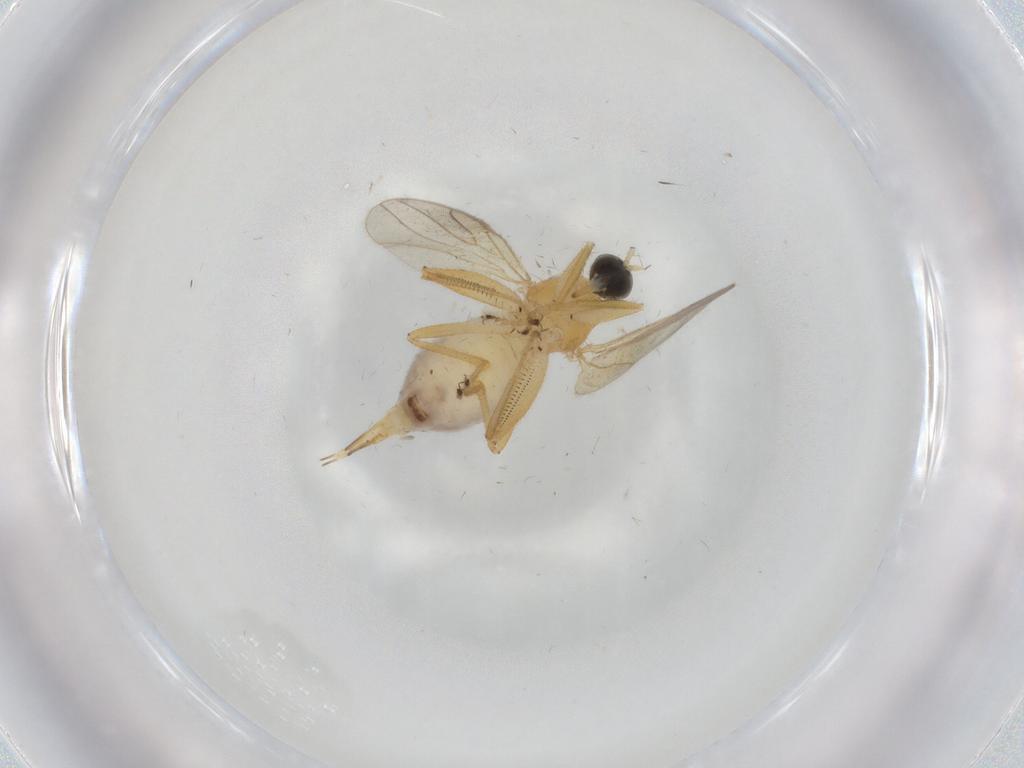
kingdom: Animalia
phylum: Arthropoda
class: Insecta
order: Diptera
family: Hybotidae
